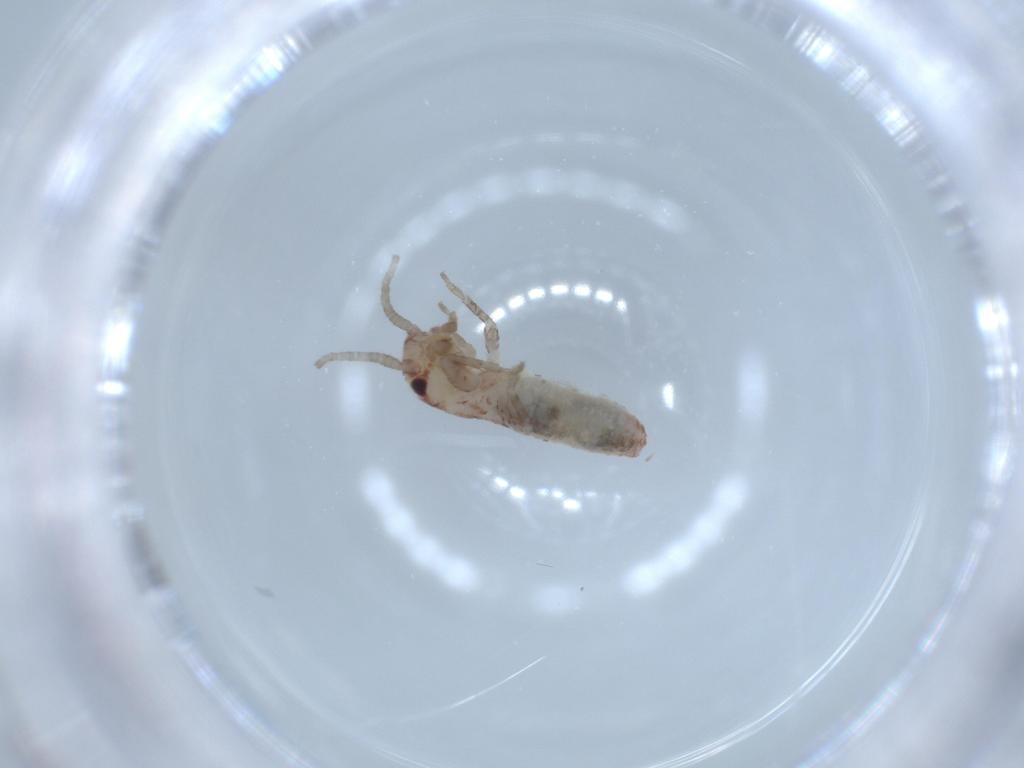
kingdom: Animalia
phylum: Arthropoda
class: Insecta
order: Orthoptera
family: Mogoplistidae
